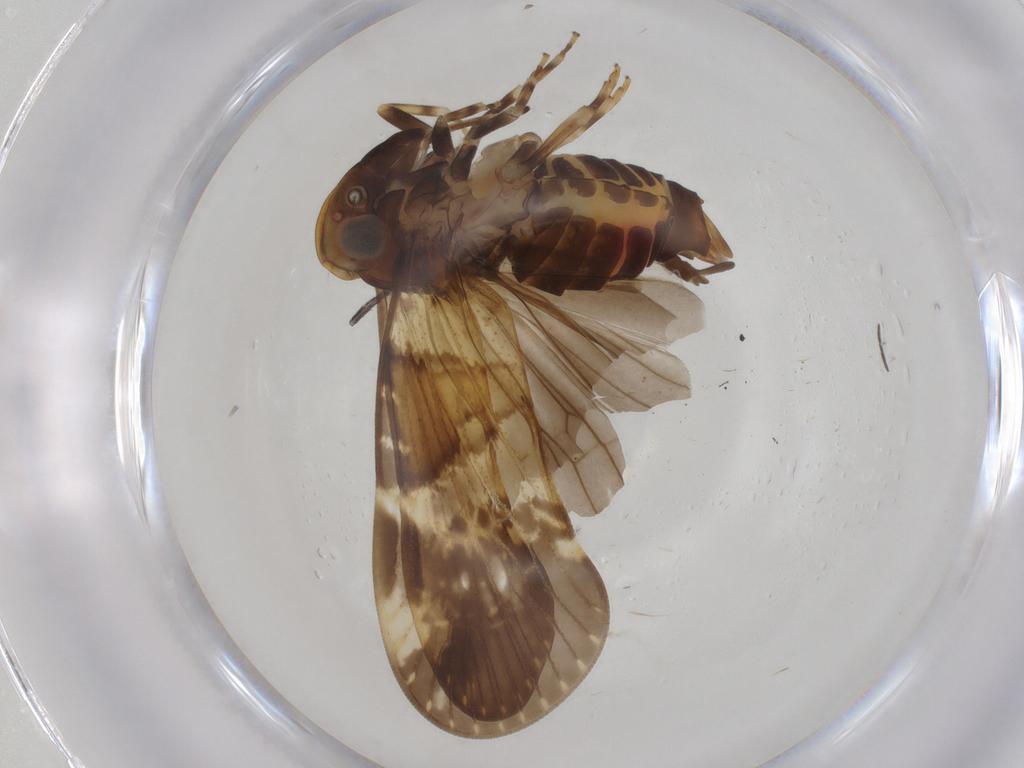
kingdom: Animalia
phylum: Arthropoda
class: Insecta
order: Hemiptera
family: Cixiidae
